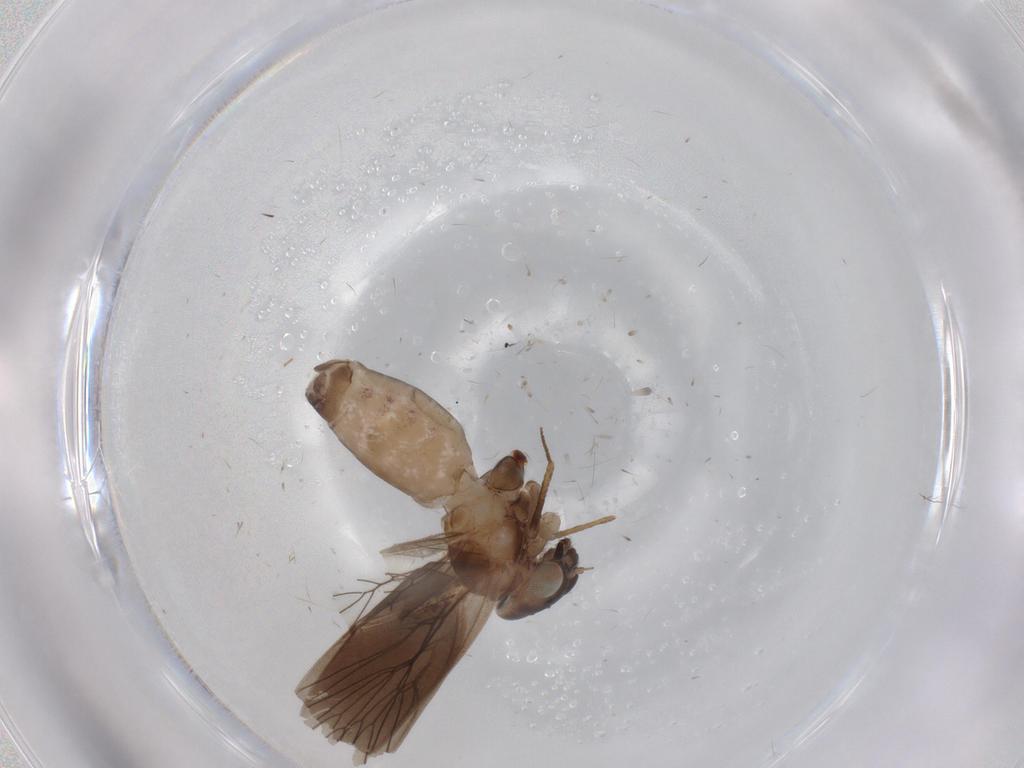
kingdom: Animalia
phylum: Arthropoda
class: Insecta
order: Psocodea
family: Lepidopsocidae
